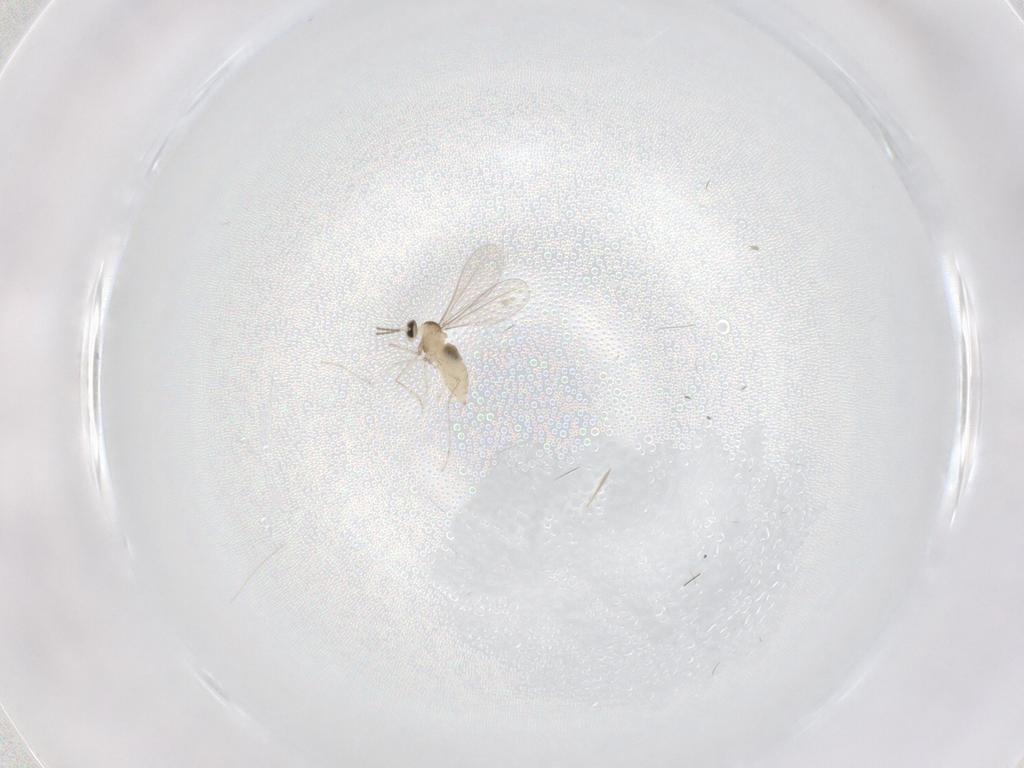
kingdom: Animalia
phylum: Arthropoda
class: Insecta
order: Diptera
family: Cecidomyiidae
